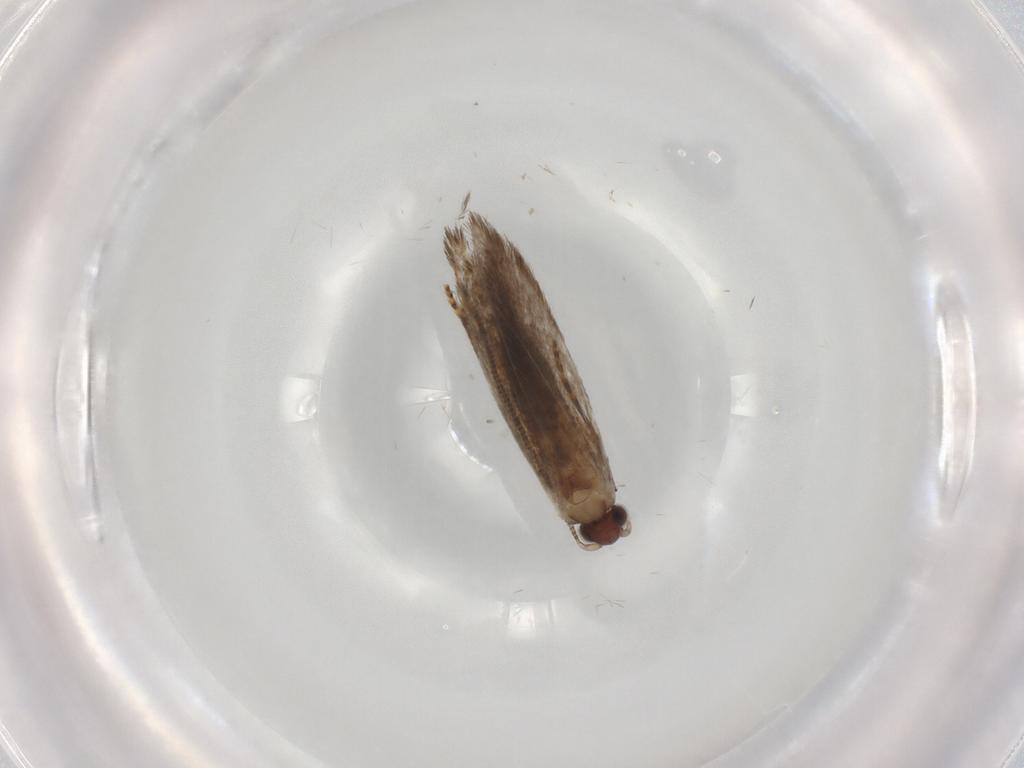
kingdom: Animalia
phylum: Arthropoda
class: Insecta
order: Lepidoptera
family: Tineidae
